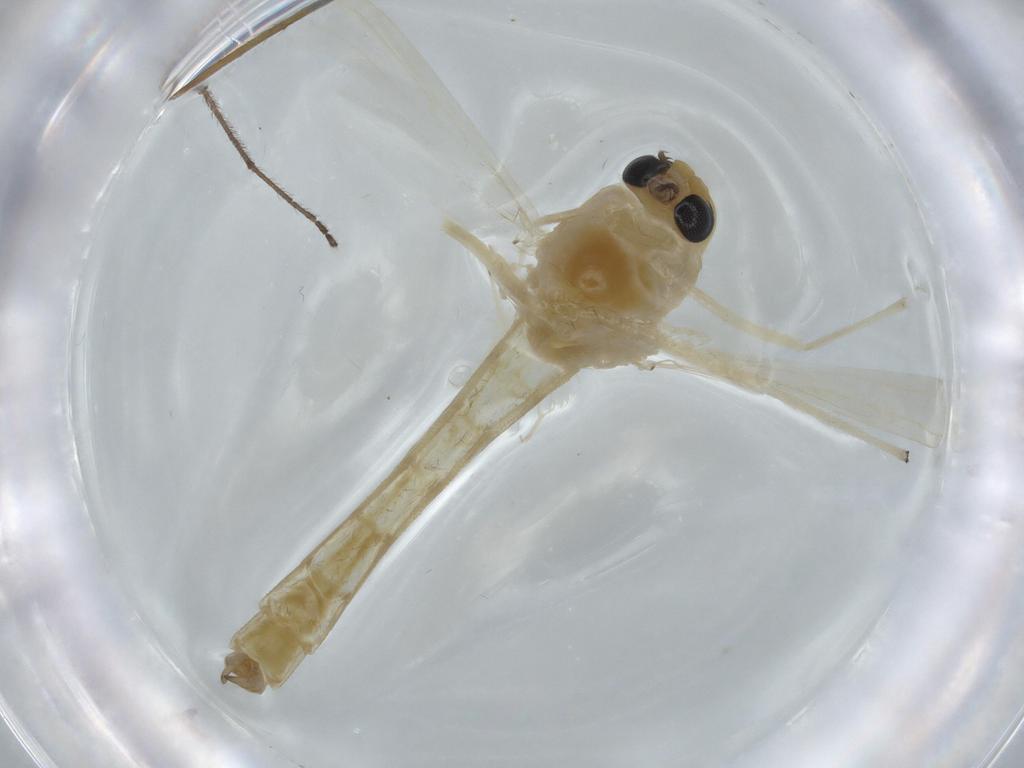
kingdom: Animalia
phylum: Arthropoda
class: Insecta
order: Diptera
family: Chironomidae
